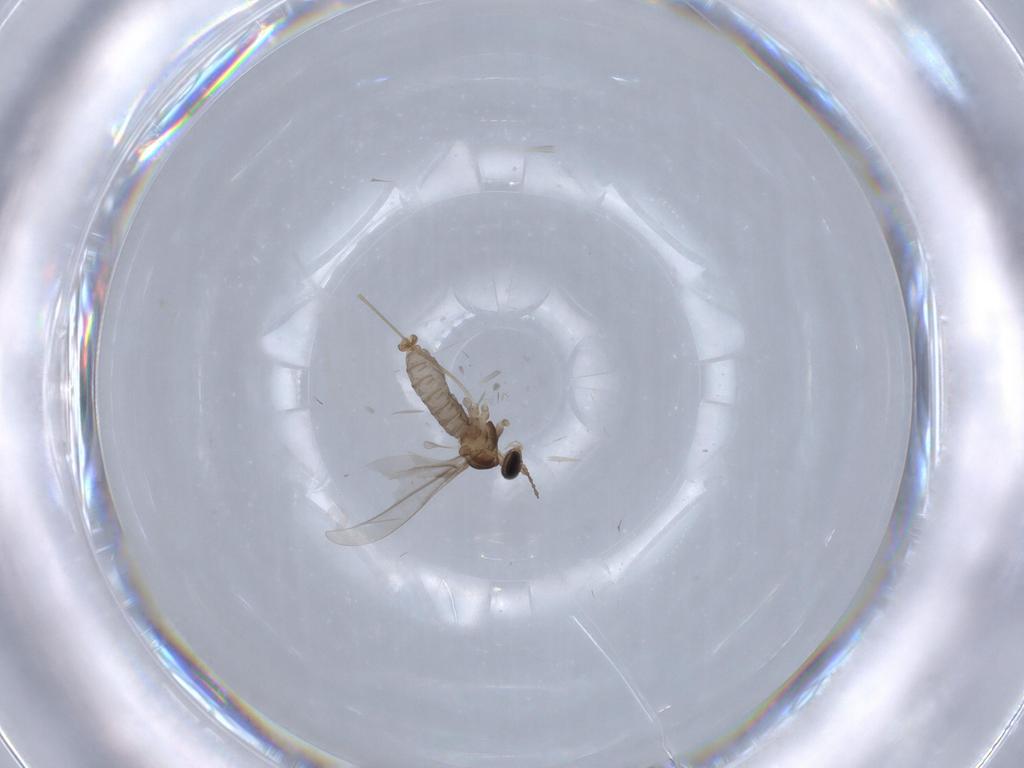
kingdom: Animalia
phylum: Arthropoda
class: Insecta
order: Diptera
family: Cecidomyiidae
